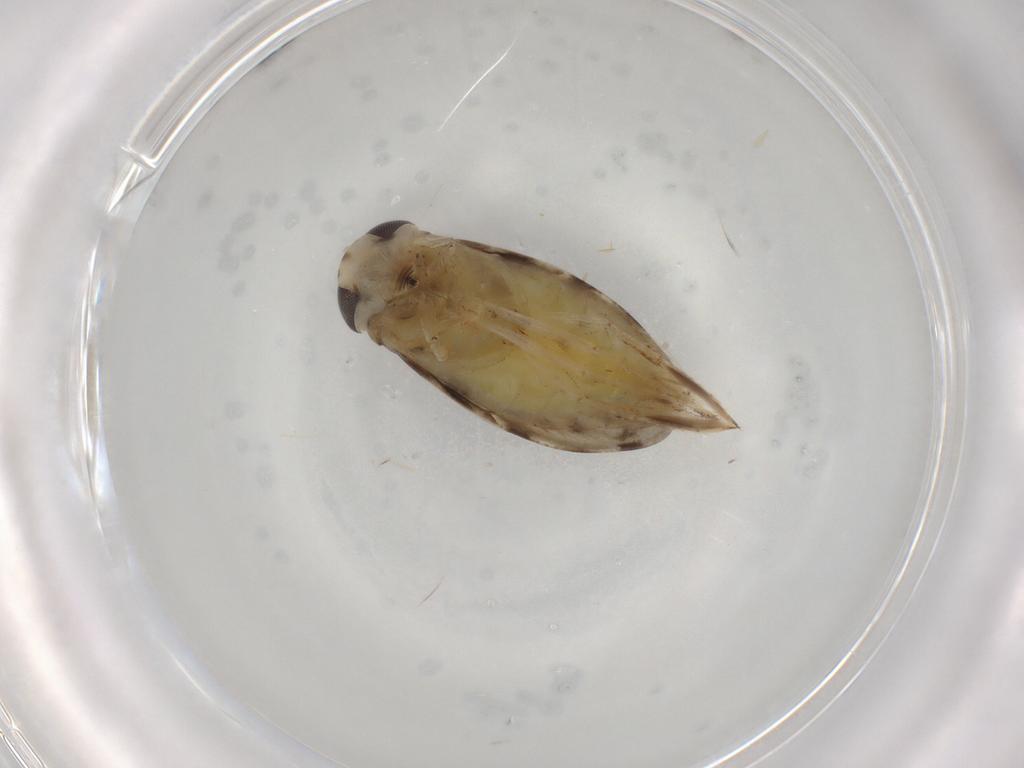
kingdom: Animalia
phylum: Arthropoda
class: Insecta
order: Hemiptera
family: Corixidae
